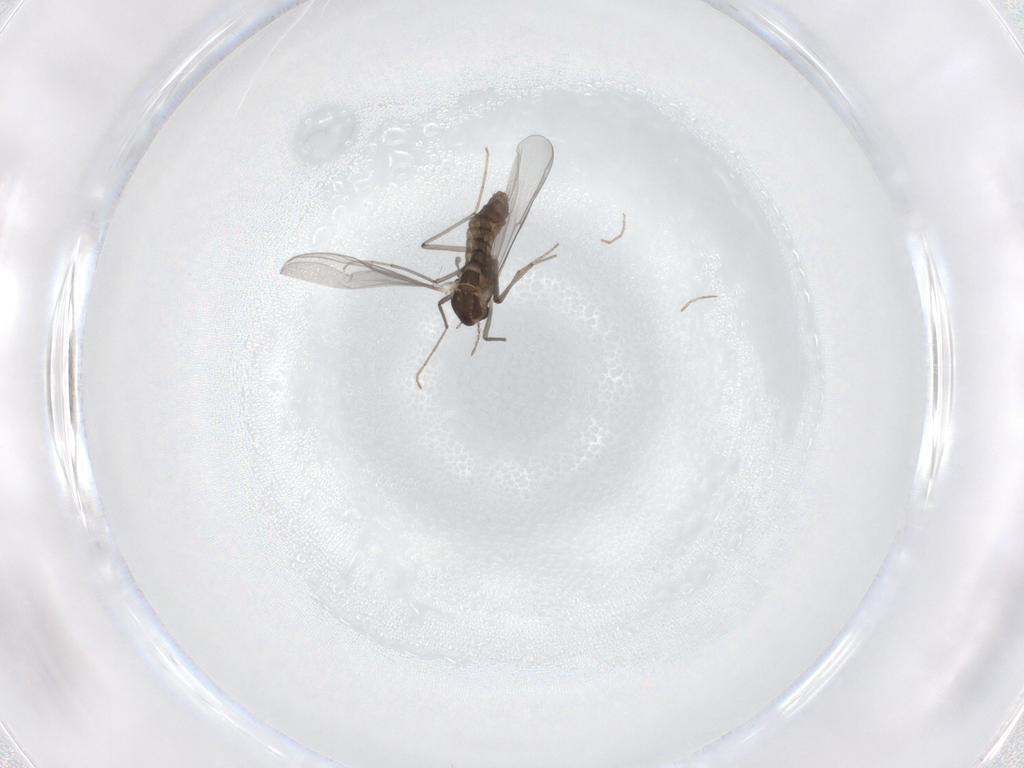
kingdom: Animalia
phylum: Arthropoda
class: Insecta
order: Diptera
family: Chironomidae
